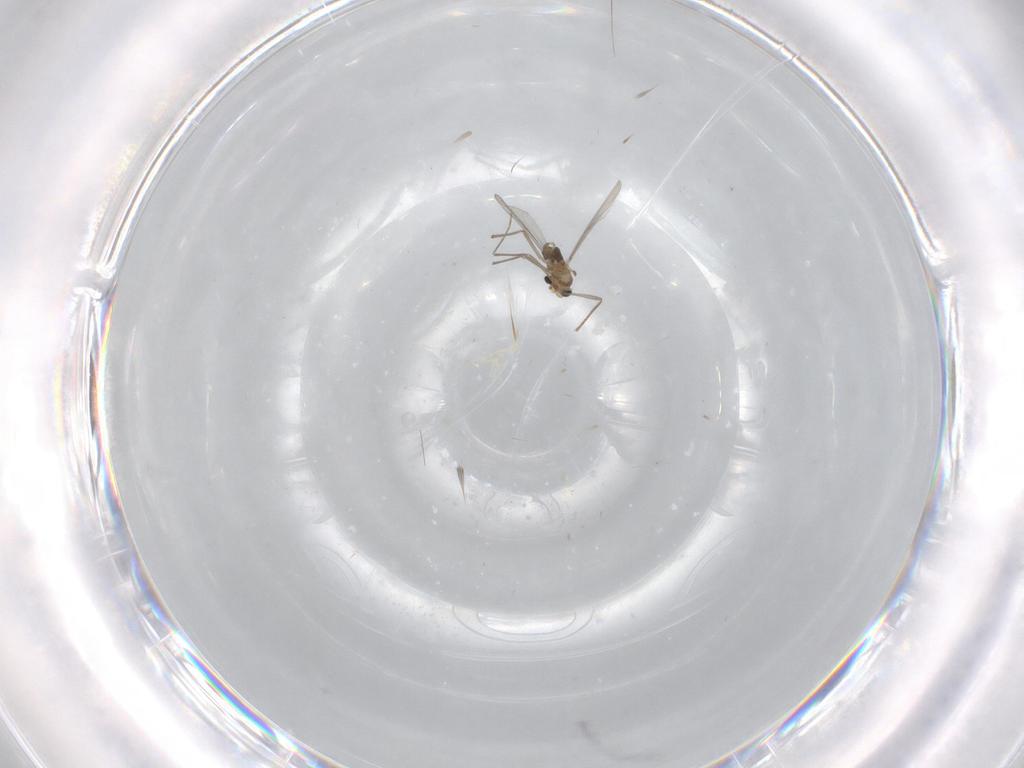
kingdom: Animalia
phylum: Arthropoda
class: Insecta
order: Diptera
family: Chironomidae
